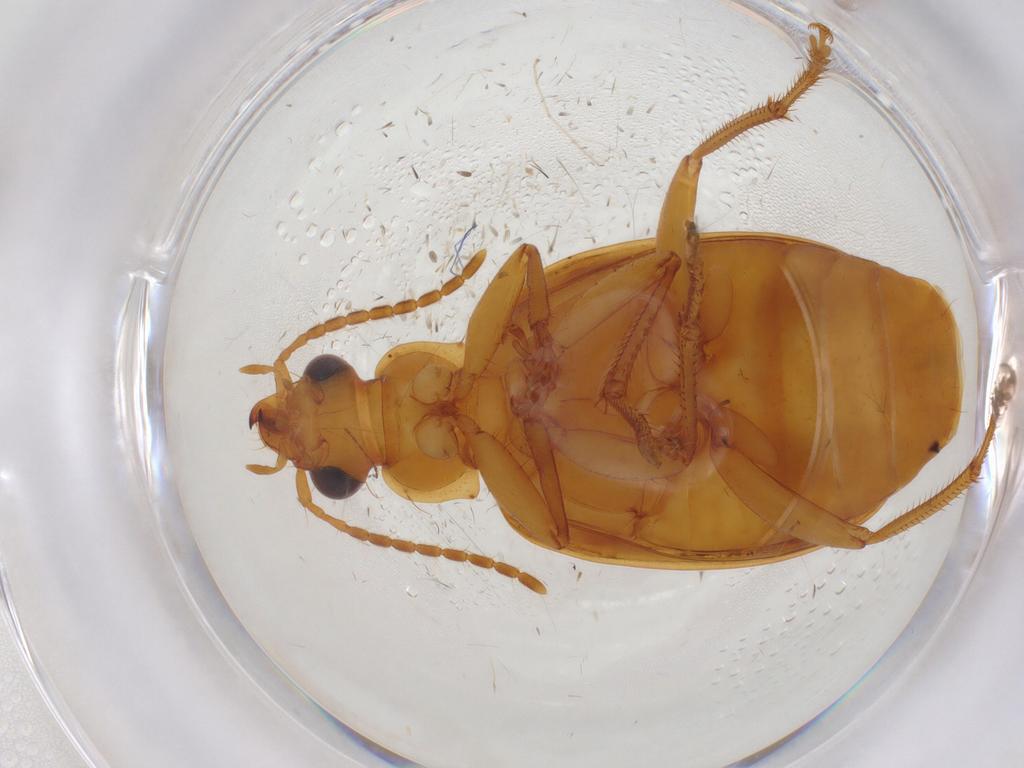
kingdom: Animalia
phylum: Arthropoda
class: Insecta
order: Coleoptera
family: Carabidae
